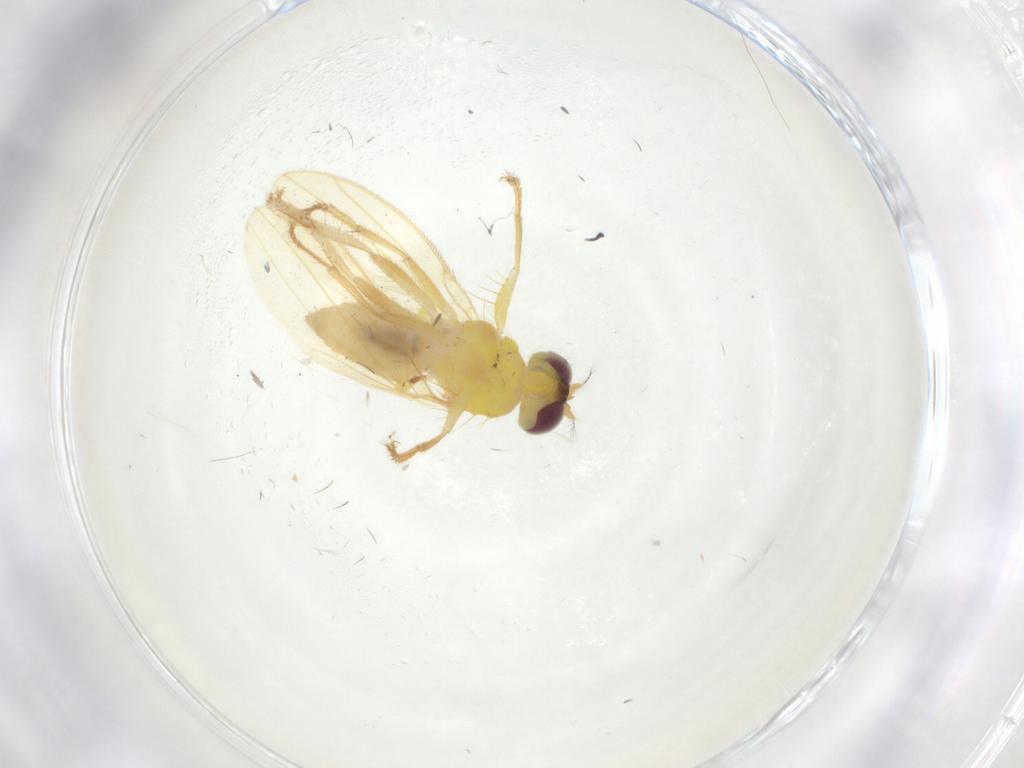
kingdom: Animalia
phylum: Arthropoda
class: Insecta
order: Diptera
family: Periscelididae
